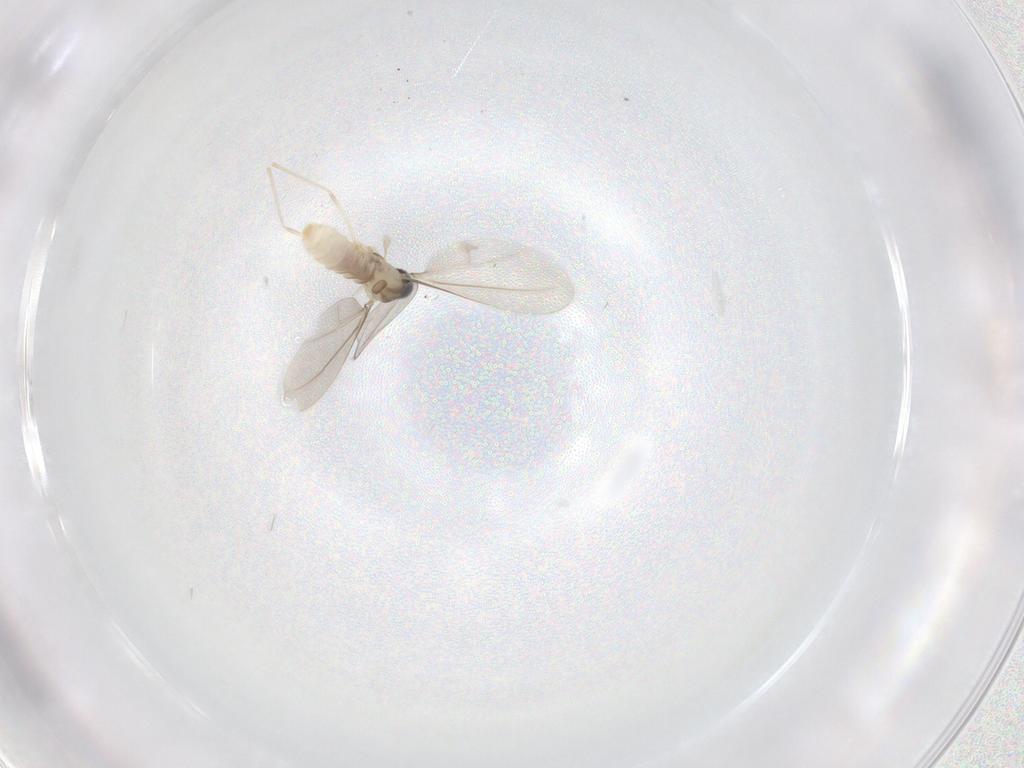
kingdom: Animalia
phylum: Arthropoda
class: Insecta
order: Diptera
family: Cecidomyiidae
